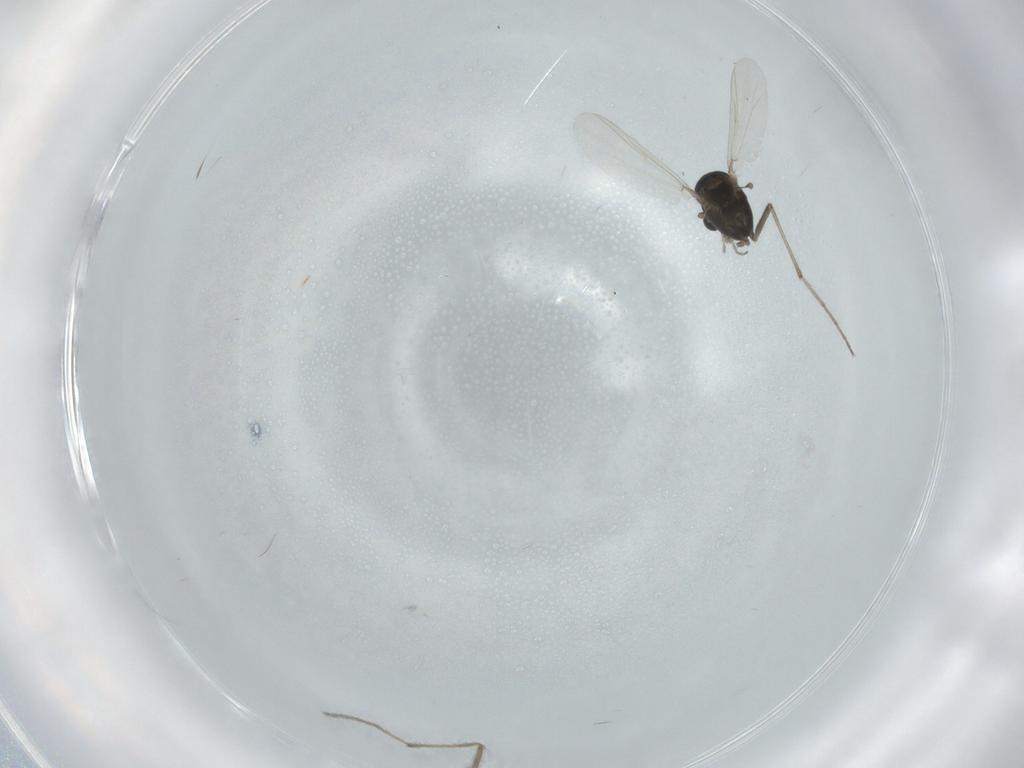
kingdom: Animalia
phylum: Arthropoda
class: Insecta
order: Diptera
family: Chironomidae
